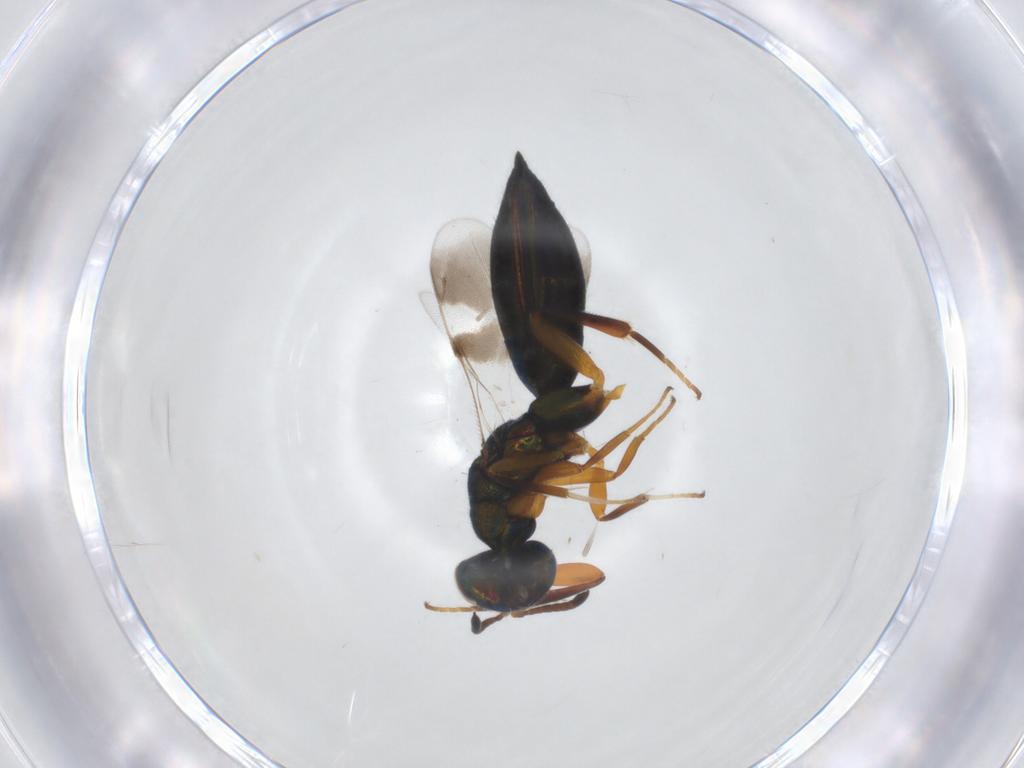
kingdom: Animalia
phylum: Arthropoda
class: Insecta
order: Hymenoptera
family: Cleonyminae
